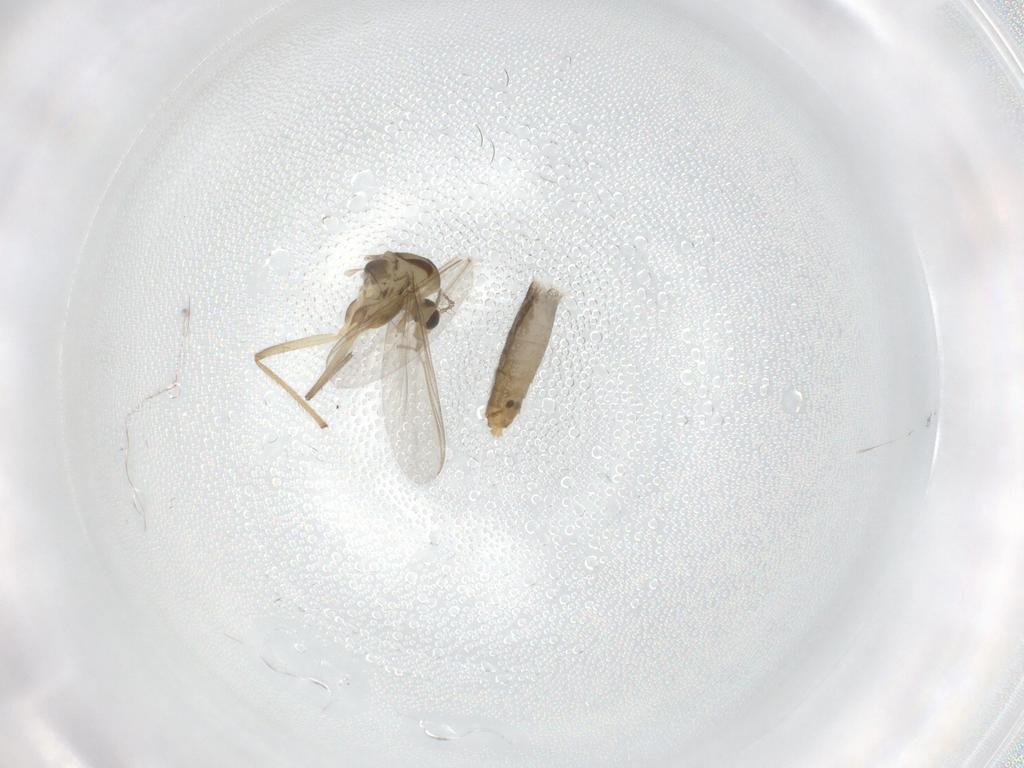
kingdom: Animalia
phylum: Arthropoda
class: Insecta
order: Diptera
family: Chironomidae
